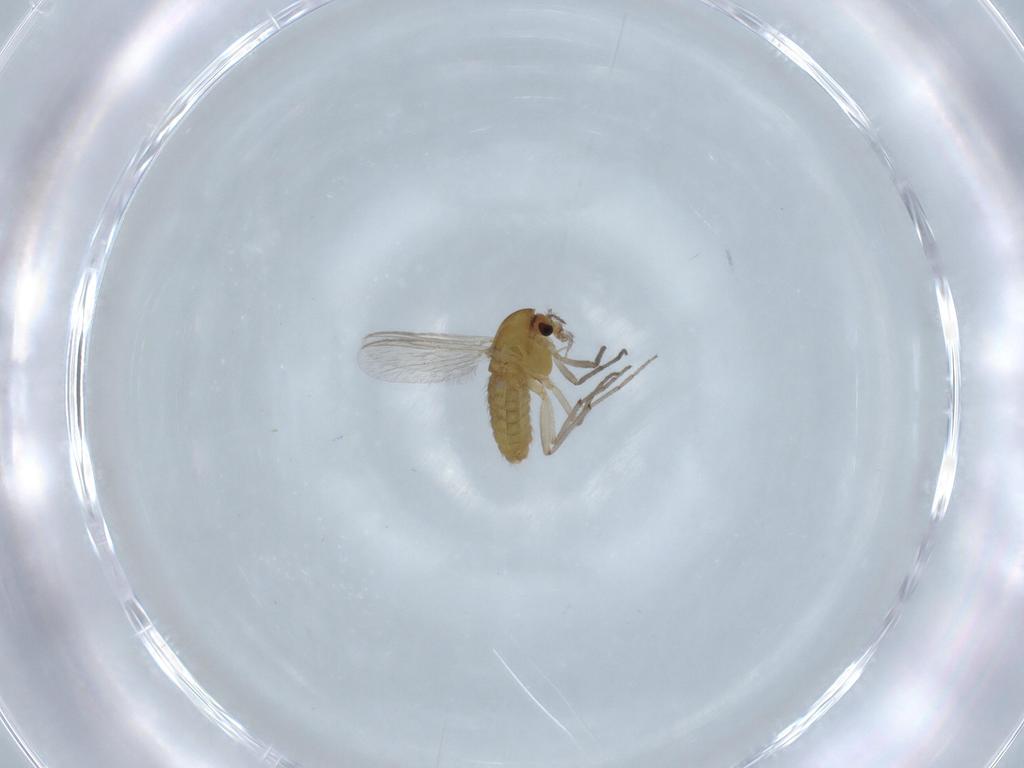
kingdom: Animalia
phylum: Arthropoda
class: Insecta
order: Diptera
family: Chironomidae
